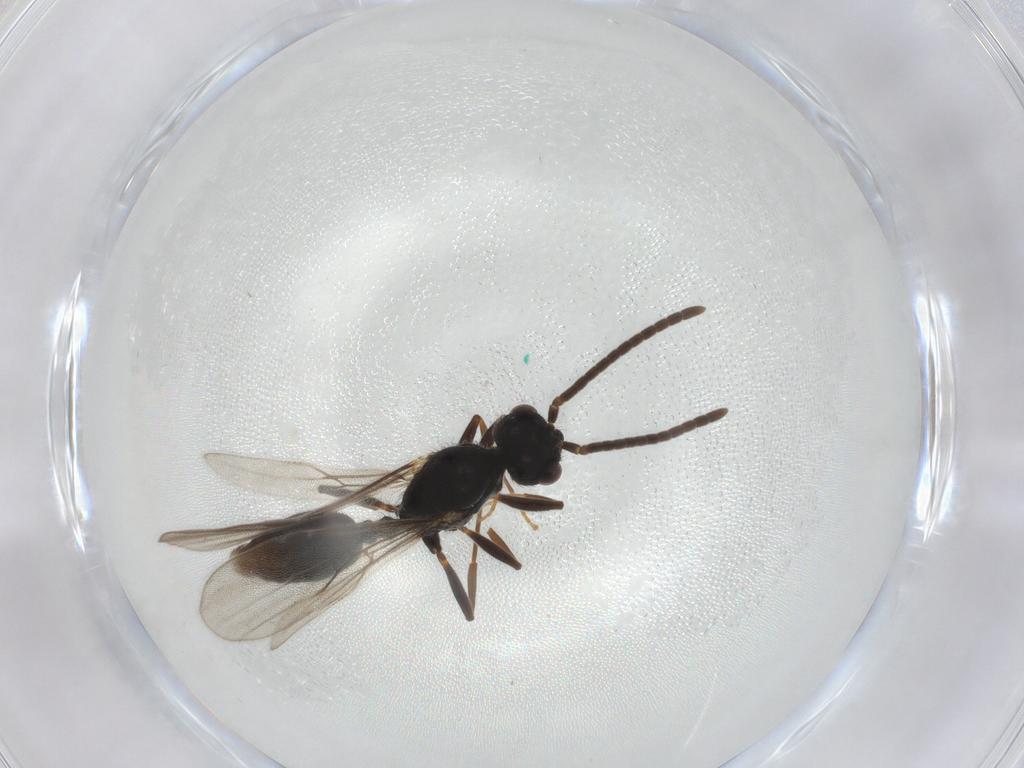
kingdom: Animalia
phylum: Arthropoda
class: Insecta
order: Hymenoptera
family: Formicidae
